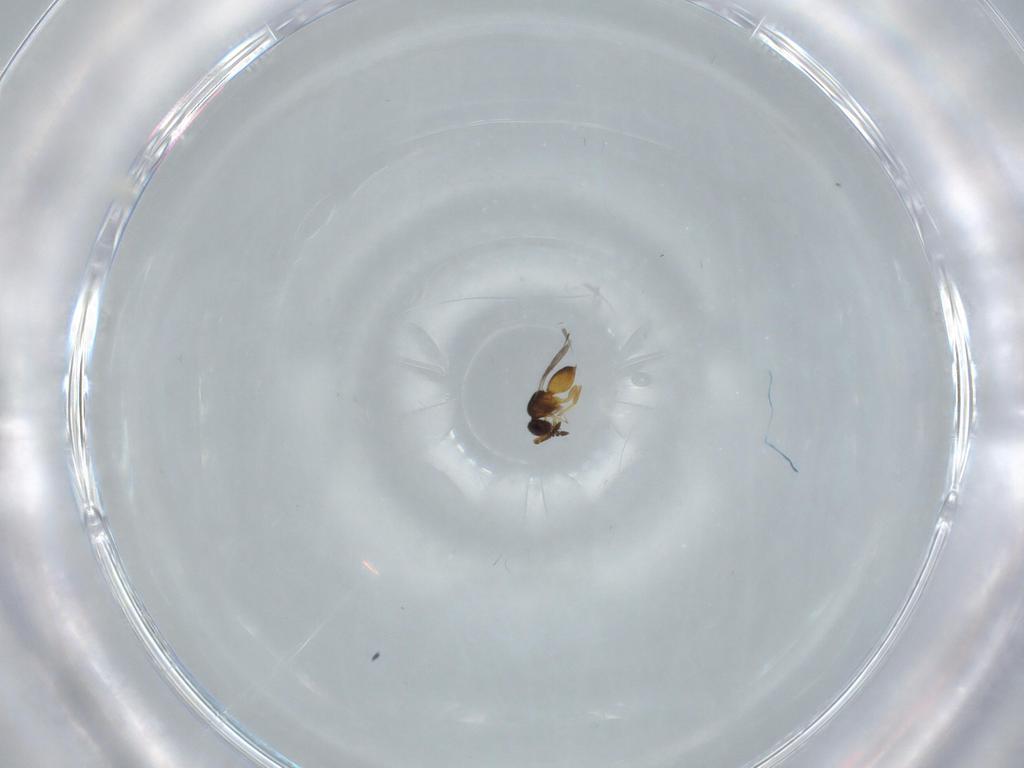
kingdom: Animalia
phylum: Arthropoda
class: Insecta
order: Hymenoptera
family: Ceraphronidae
